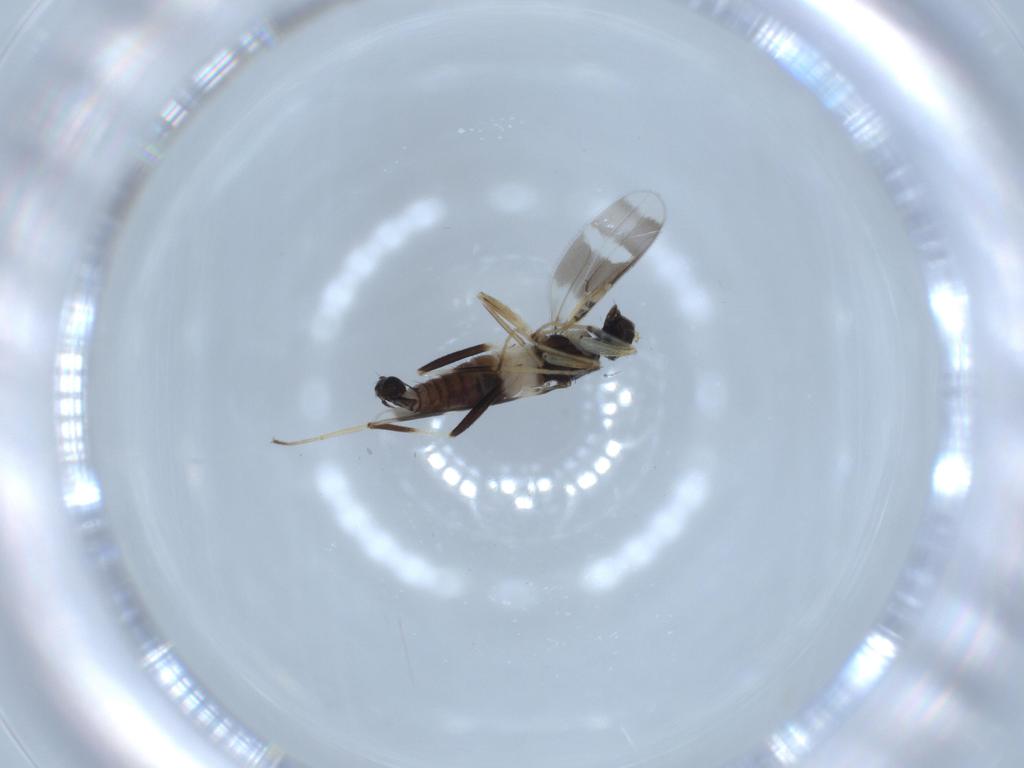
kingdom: Animalia
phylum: Arthropoda
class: Insecta
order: Diptera
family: Hybotidae
